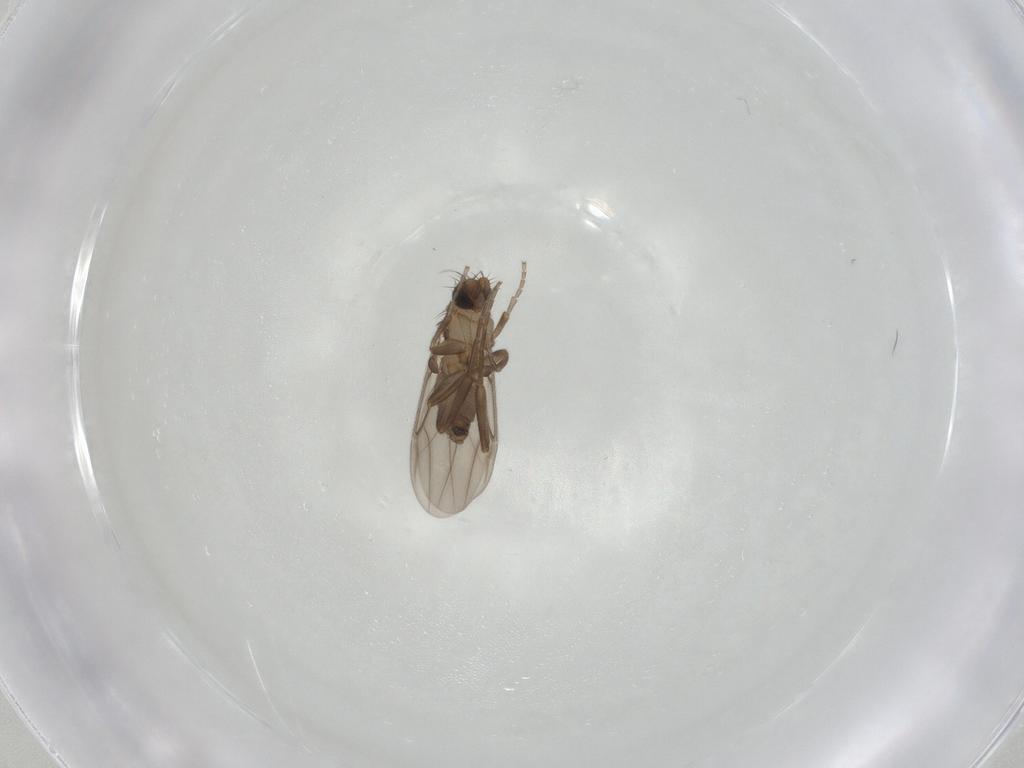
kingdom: Animalia
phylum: Arthropoda
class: Insecta
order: Diptera
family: Phoridae
